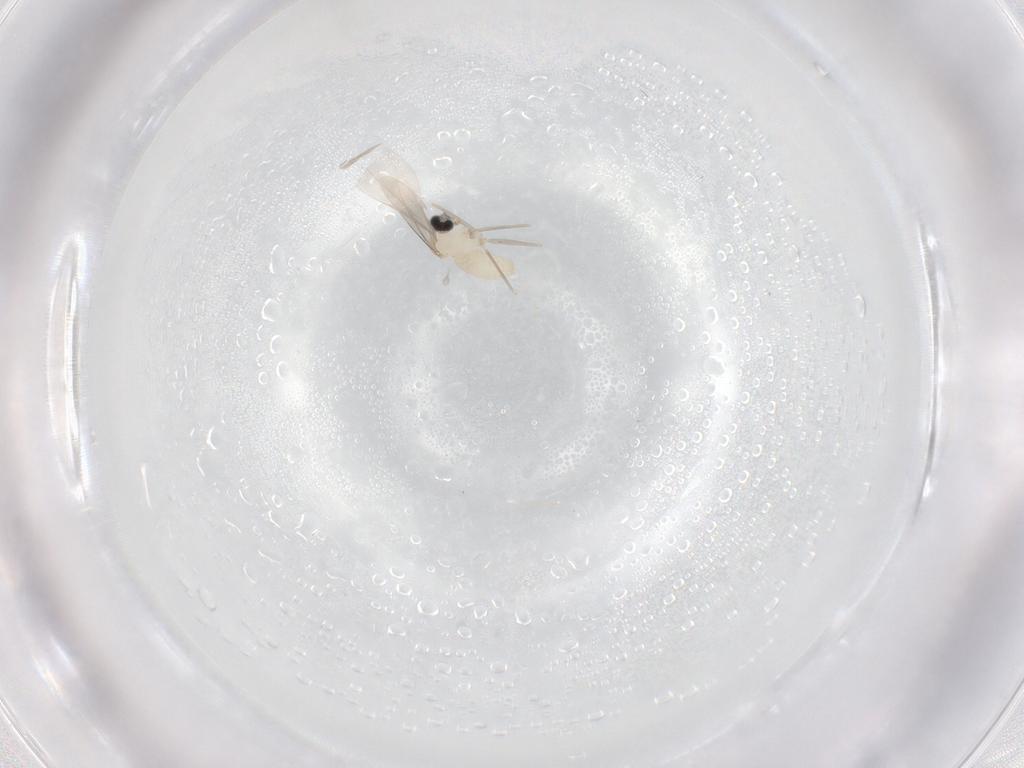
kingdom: Animalia
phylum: Arthropoda
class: Insecta
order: Diptera
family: Cecidomyiidae
